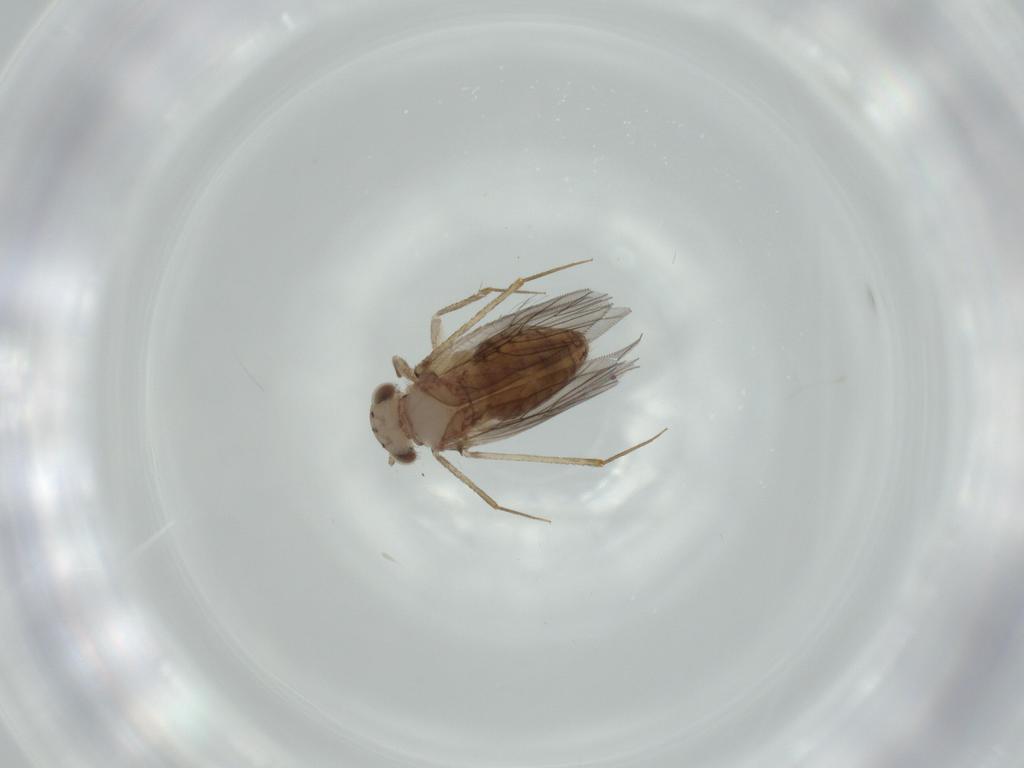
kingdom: Animalia
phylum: Arthropoda
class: Insecta
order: Psocodea
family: Lepidopsocidae
